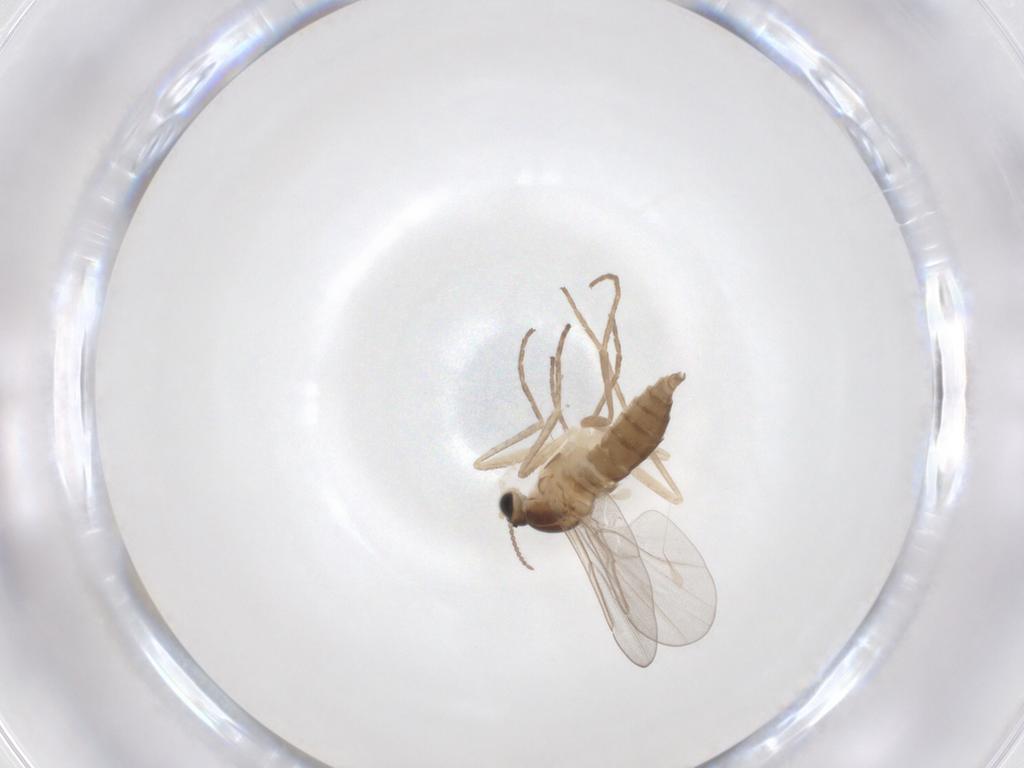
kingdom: Animalia
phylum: Arthropoda
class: Insecta
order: Diptera
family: Cecidomyiidae
